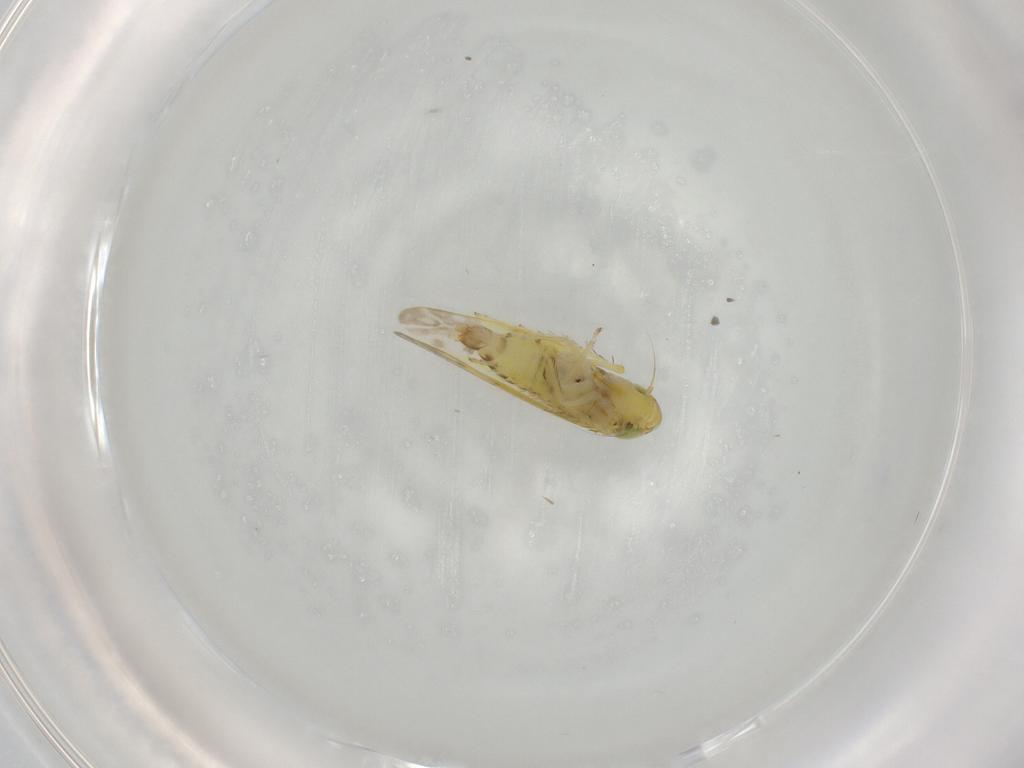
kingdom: Animalia
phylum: Arthropoda
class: Insecta
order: Hemiptera
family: Cicadellidae
